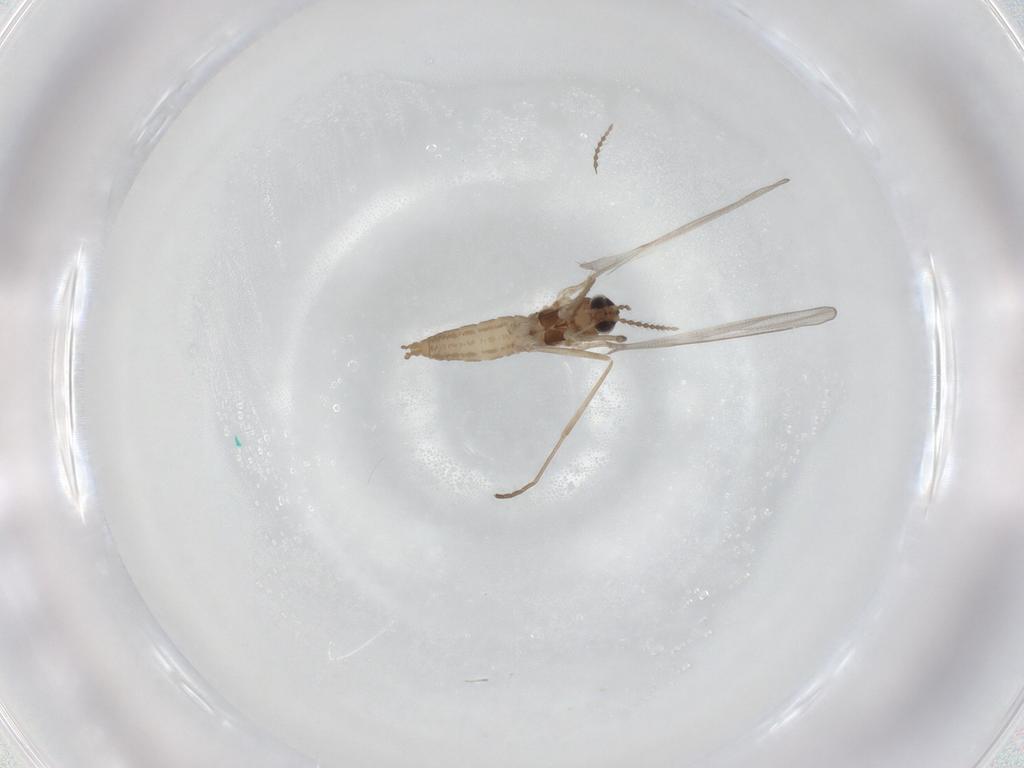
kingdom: Animalia
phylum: Arthropoda
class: Insecta
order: Diptera
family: Cecidomyiidae
